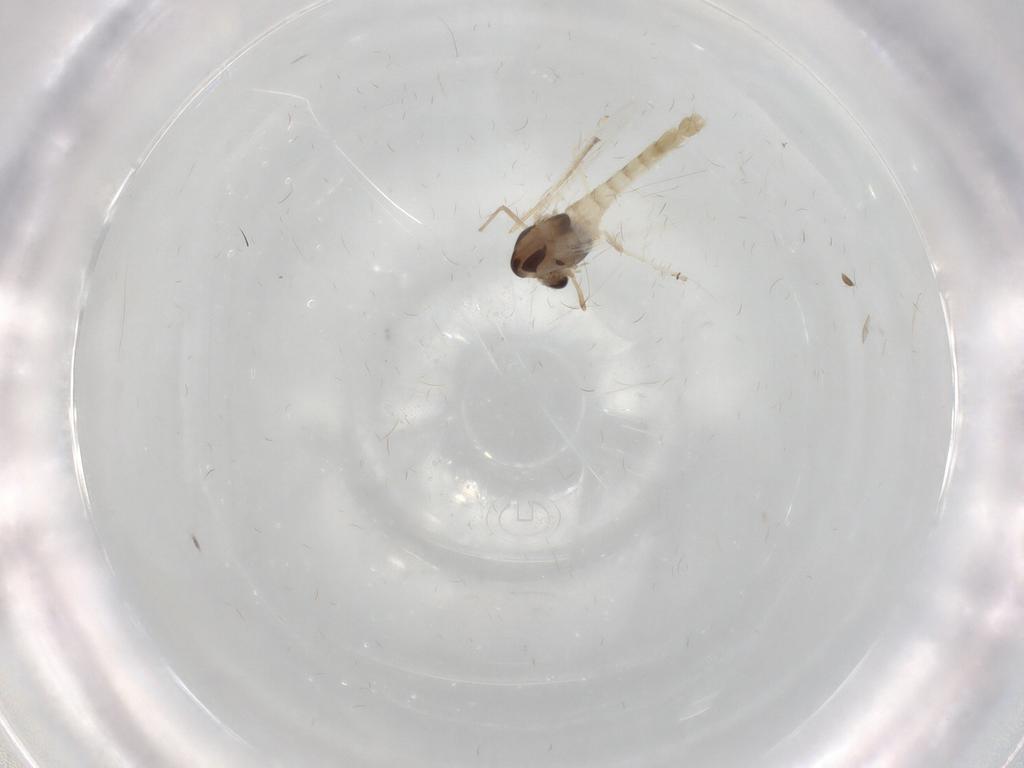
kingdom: Animalia
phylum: Arthropoda
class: Insecta
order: Diptera
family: Chironomidae
